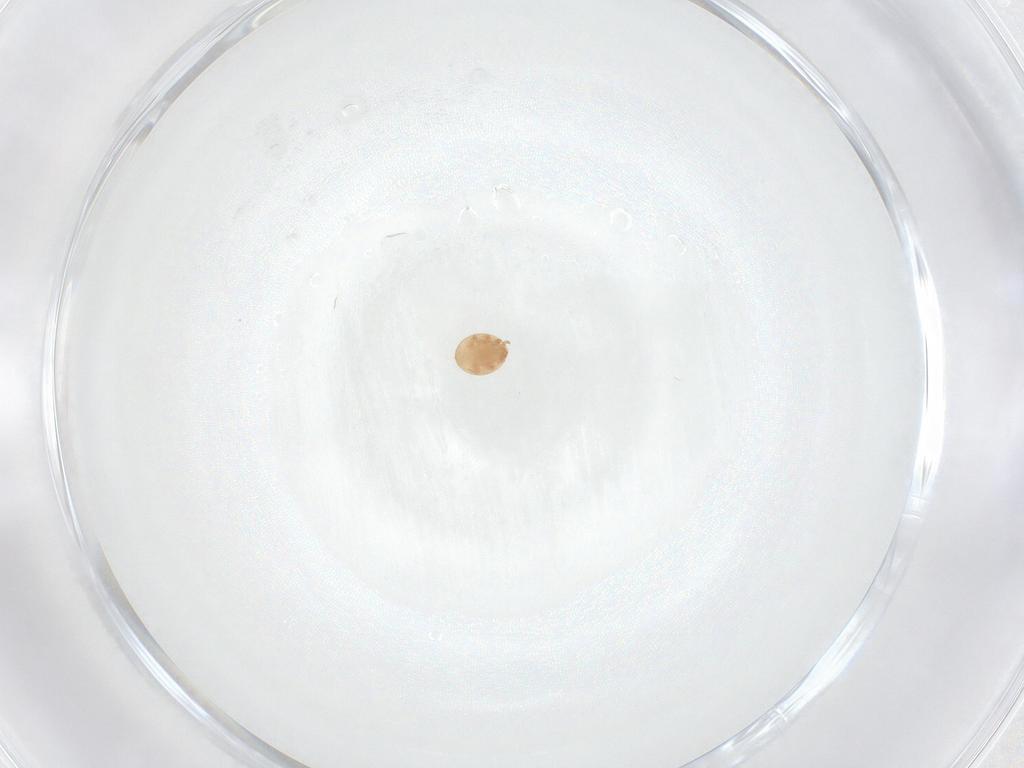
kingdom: Animalia
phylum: Arthropoda
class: Arachnida
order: Mesostigmata
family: Trematuridae
